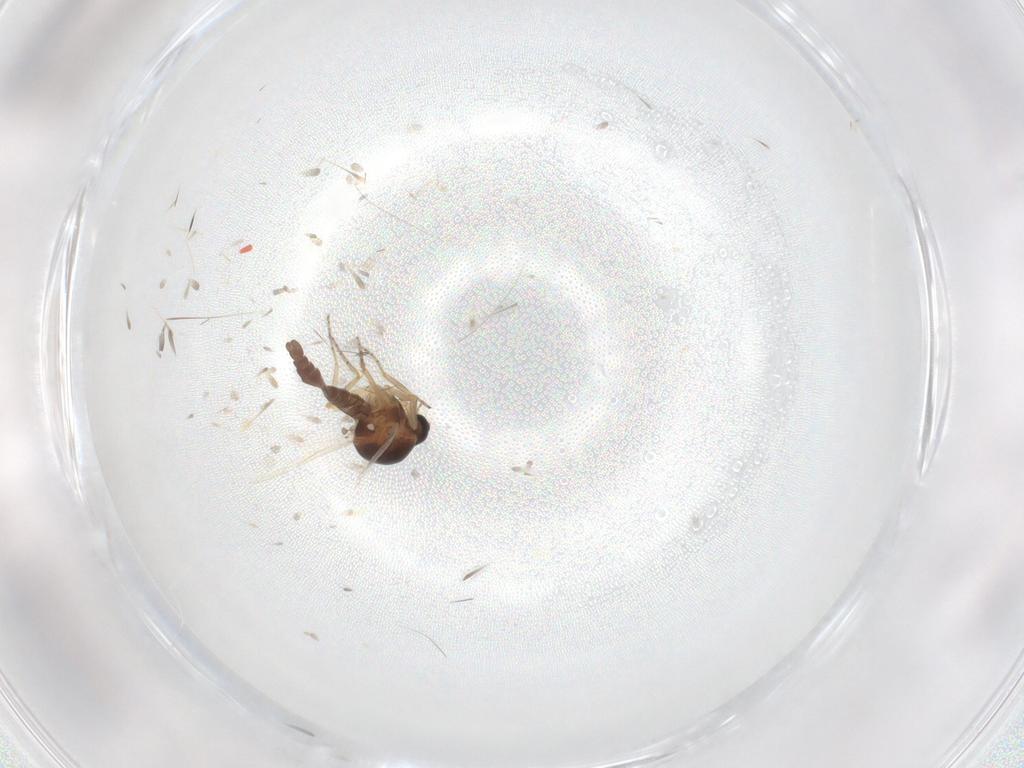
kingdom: Animalia
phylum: Arthropoda
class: Insecta
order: Diptera
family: Ceratopogonidae
